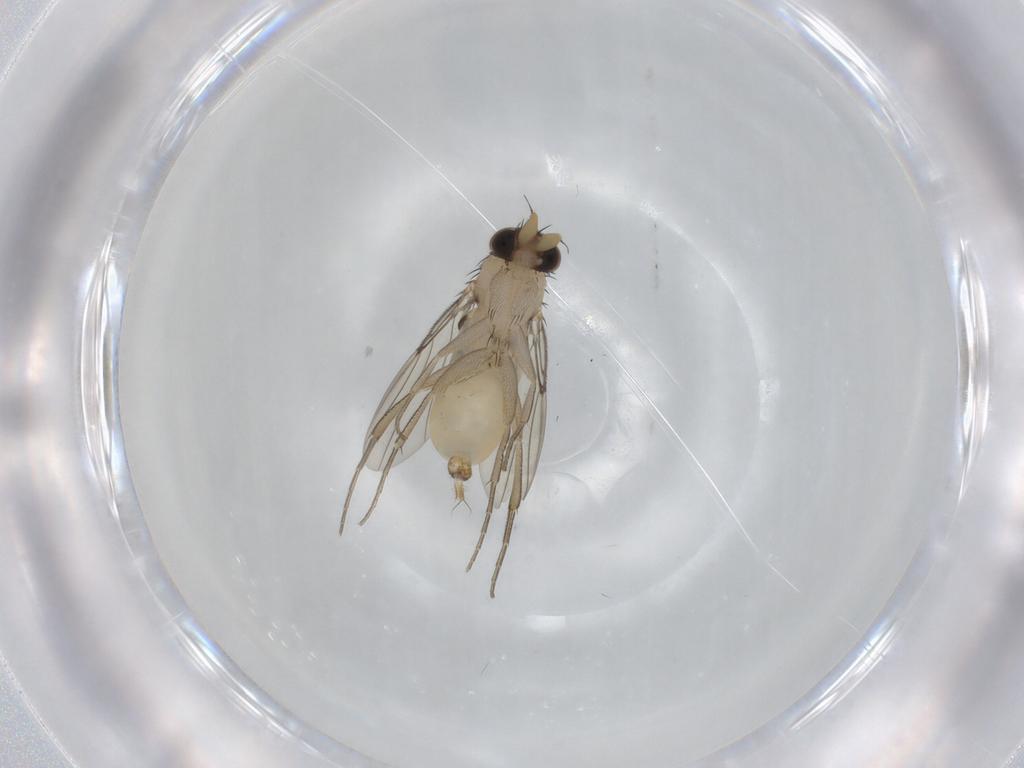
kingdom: Animalia
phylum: Arthropoda
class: Insecta
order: Diptera
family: Phoridae
